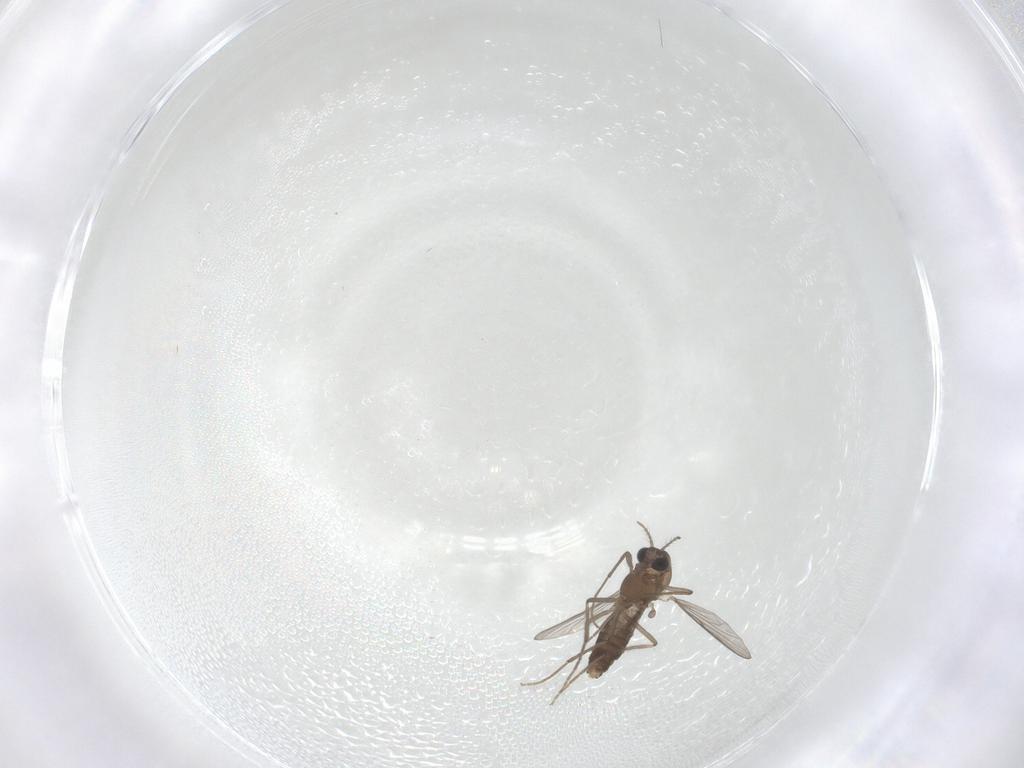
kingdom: Animalia
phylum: Arthropoda
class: Insecta
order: Diptera
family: Chironomidae
